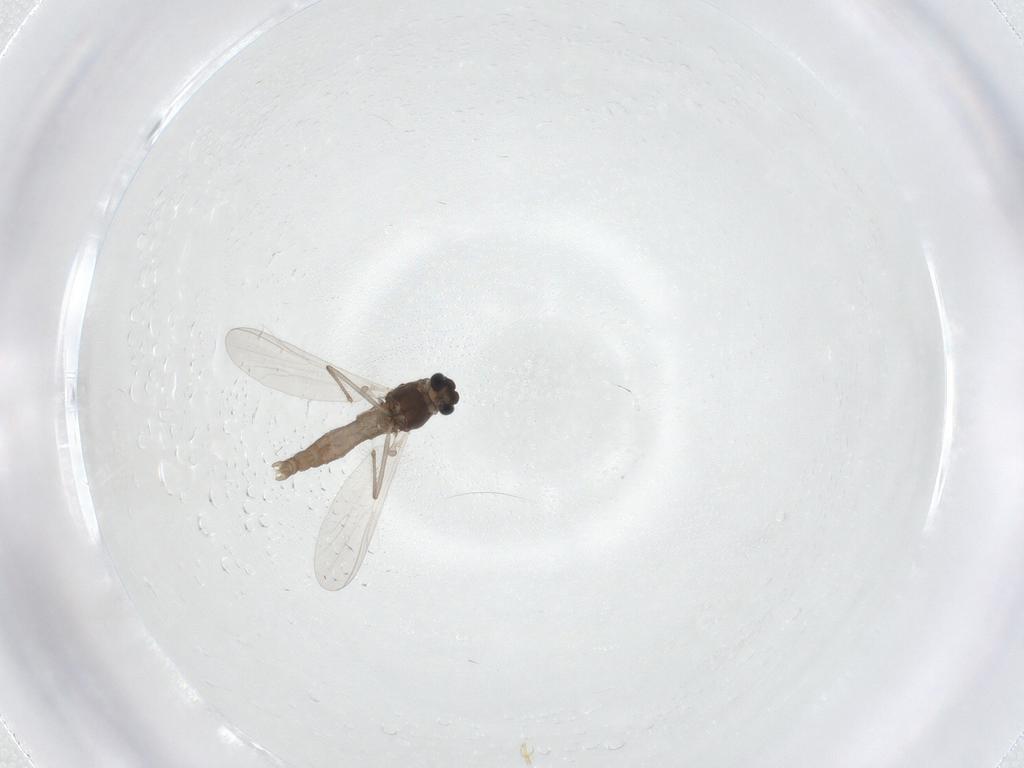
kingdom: Animalia
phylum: Arthropoda
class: Insecta
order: Diptera
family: Chironomidae
